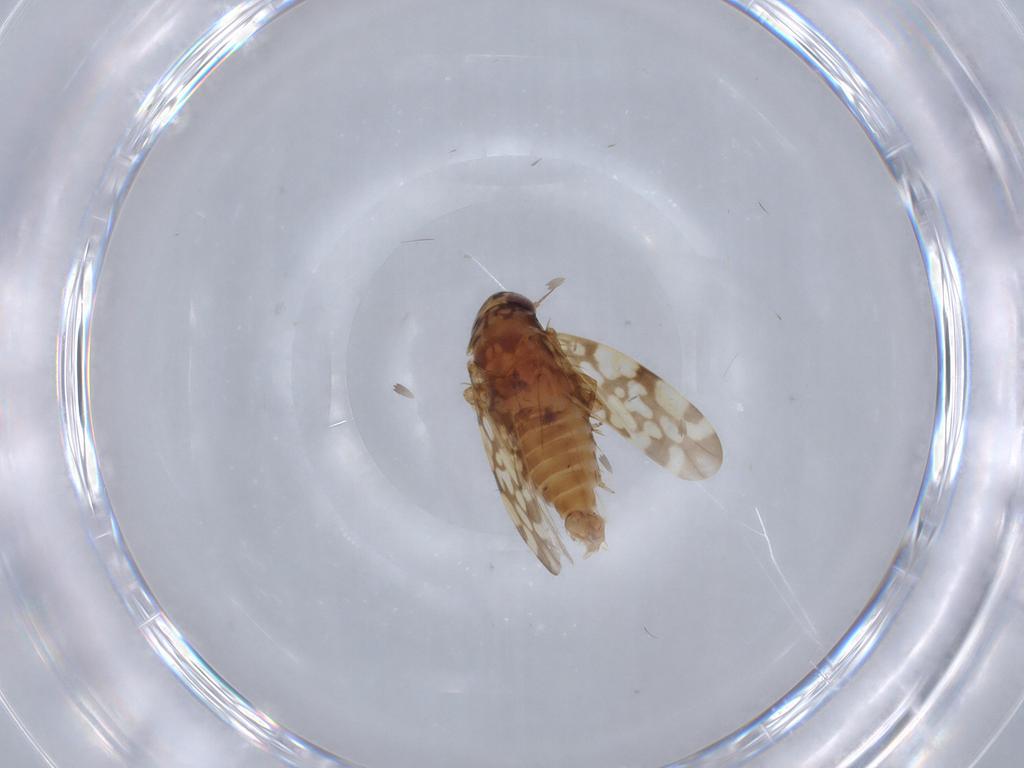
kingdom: Animalia
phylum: Arthropoda
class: Insecta
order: Hemiptera
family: Cicadellidae
